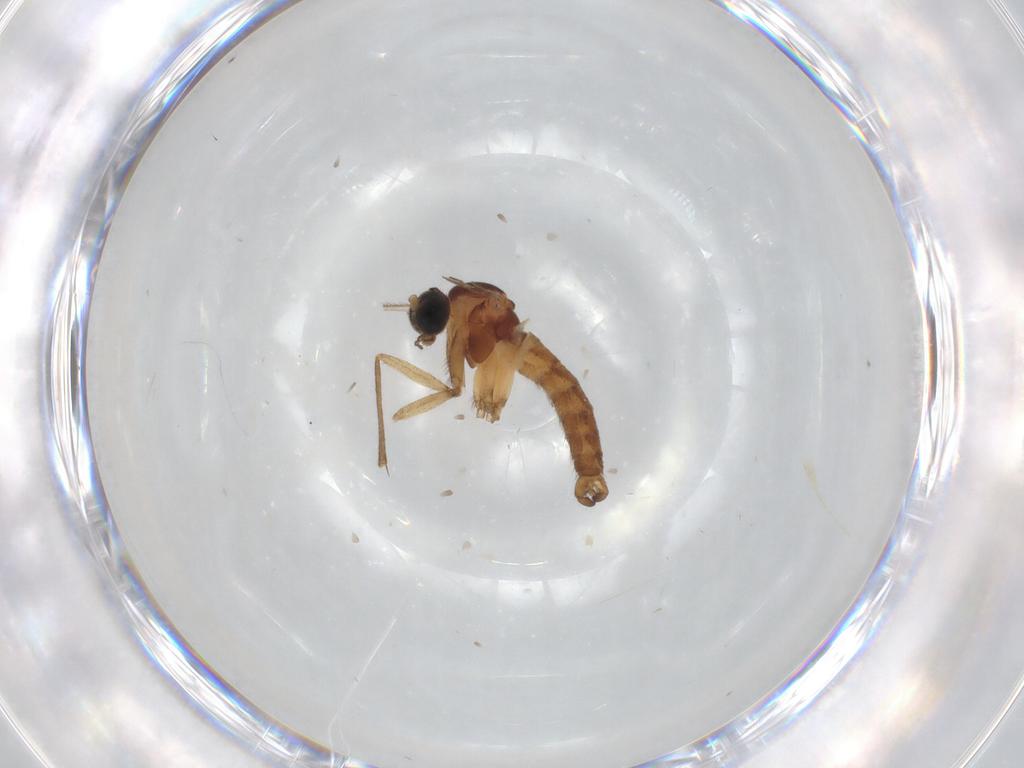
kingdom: Animalia
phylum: Arthropoda
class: Insecta
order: Diptera
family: Sciaridae
